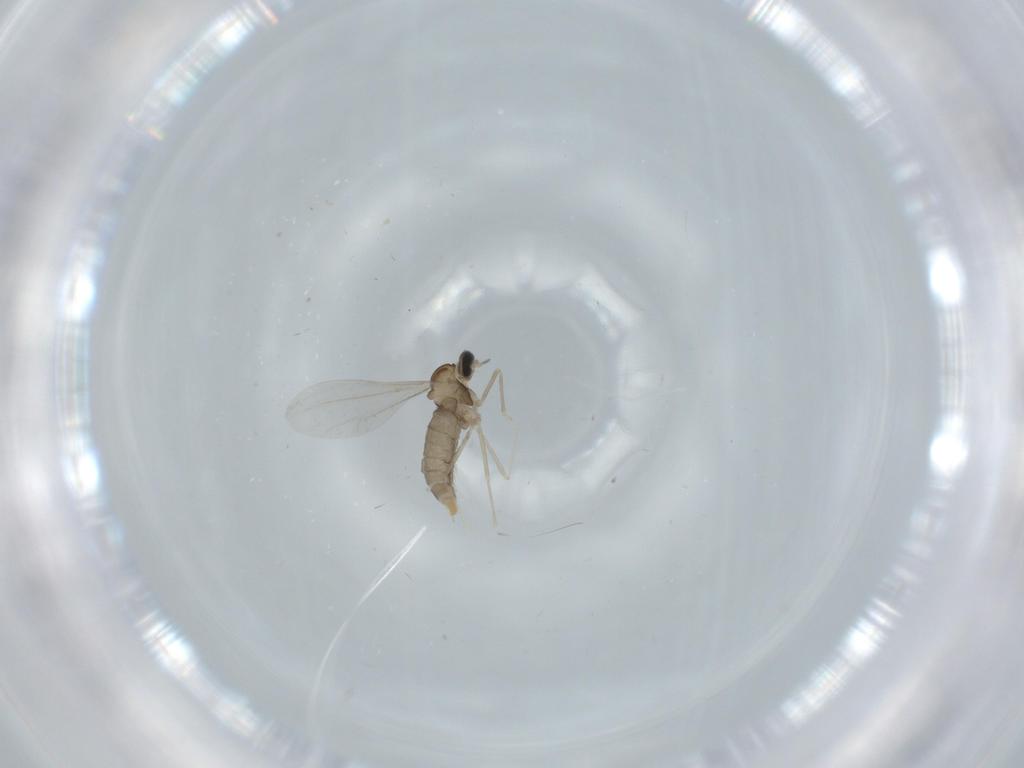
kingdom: Animalia
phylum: Arthropoda
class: Insecta
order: Diptera
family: Cecidomyiidae
